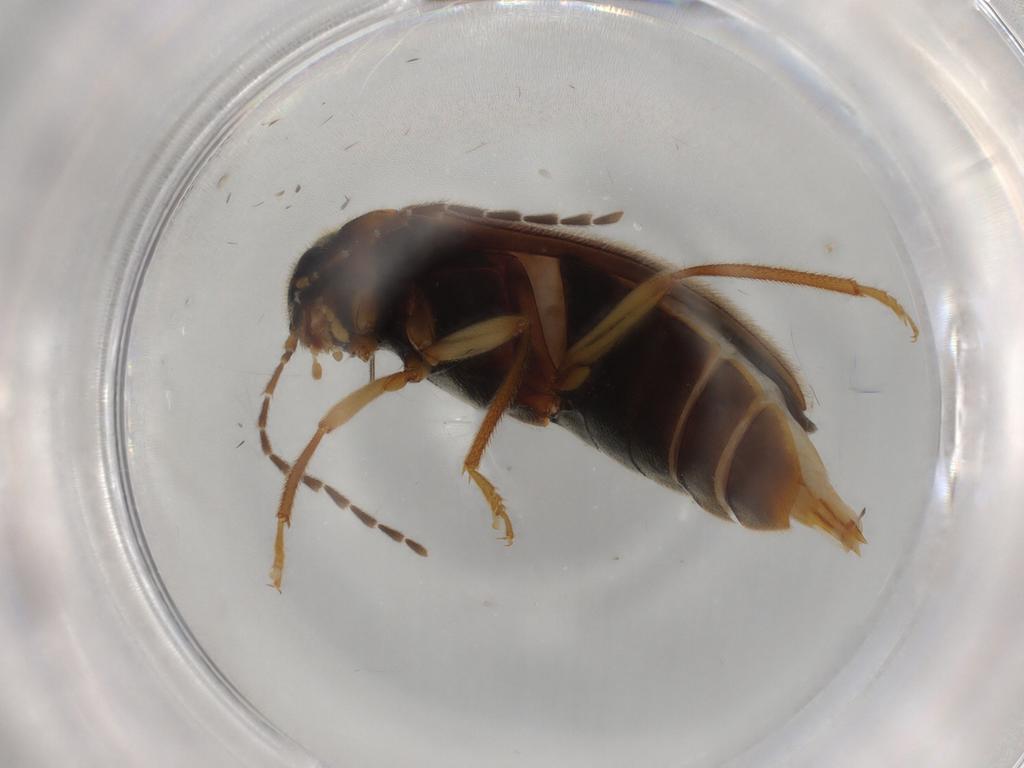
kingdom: Animalia
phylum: Arthropoda
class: Insecta
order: Coleoptera
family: Ptilodactylidae
